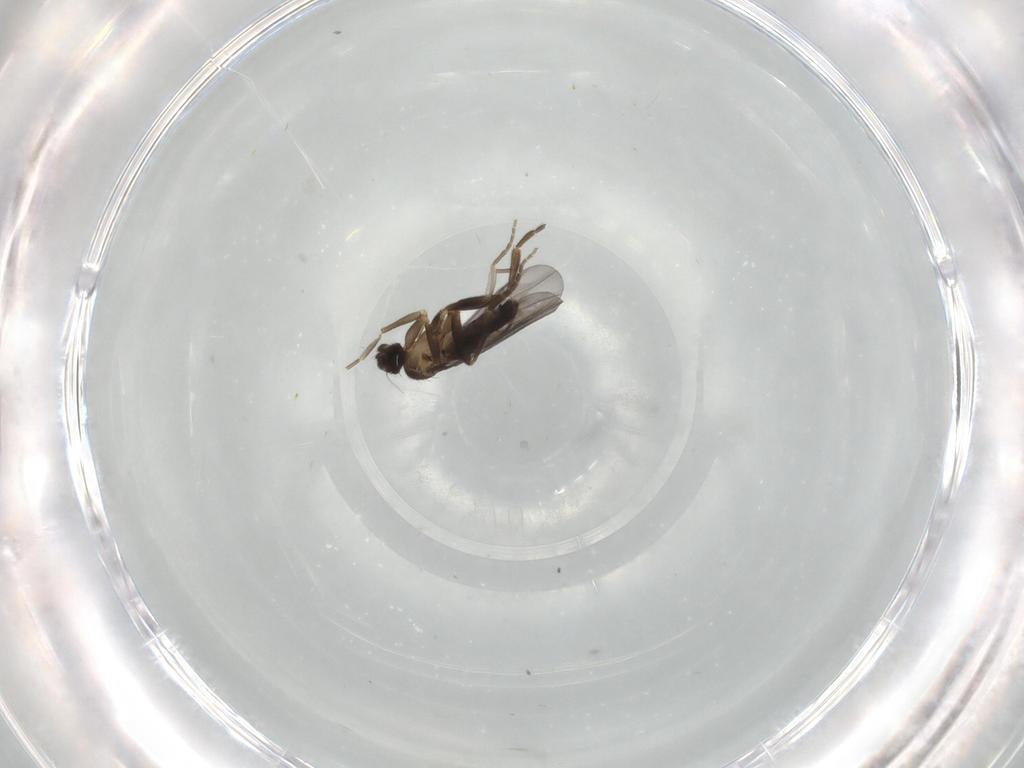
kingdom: Animalia
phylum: Arthropoda
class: Insecta
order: Diptera
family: Phoridae
